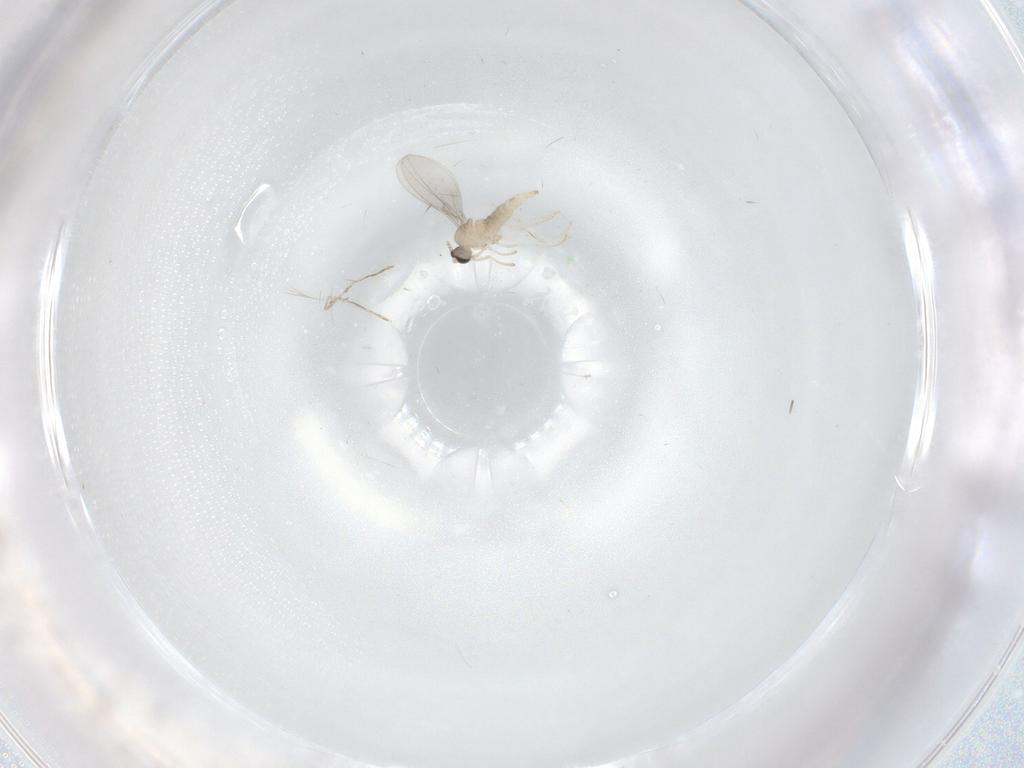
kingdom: Animalia
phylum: Arthropoda
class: Insecta
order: Diptera
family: Cecidomyiidae
